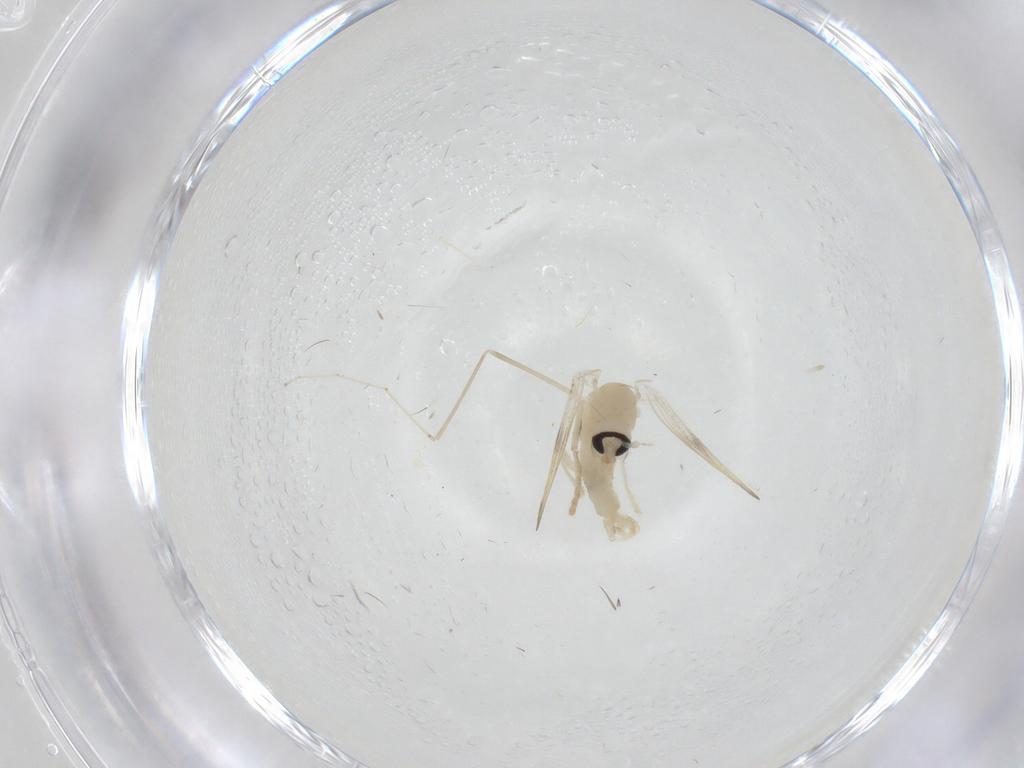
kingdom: Animalia
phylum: Arthropoda
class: Insecta
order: Diptera
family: Psychodidae
